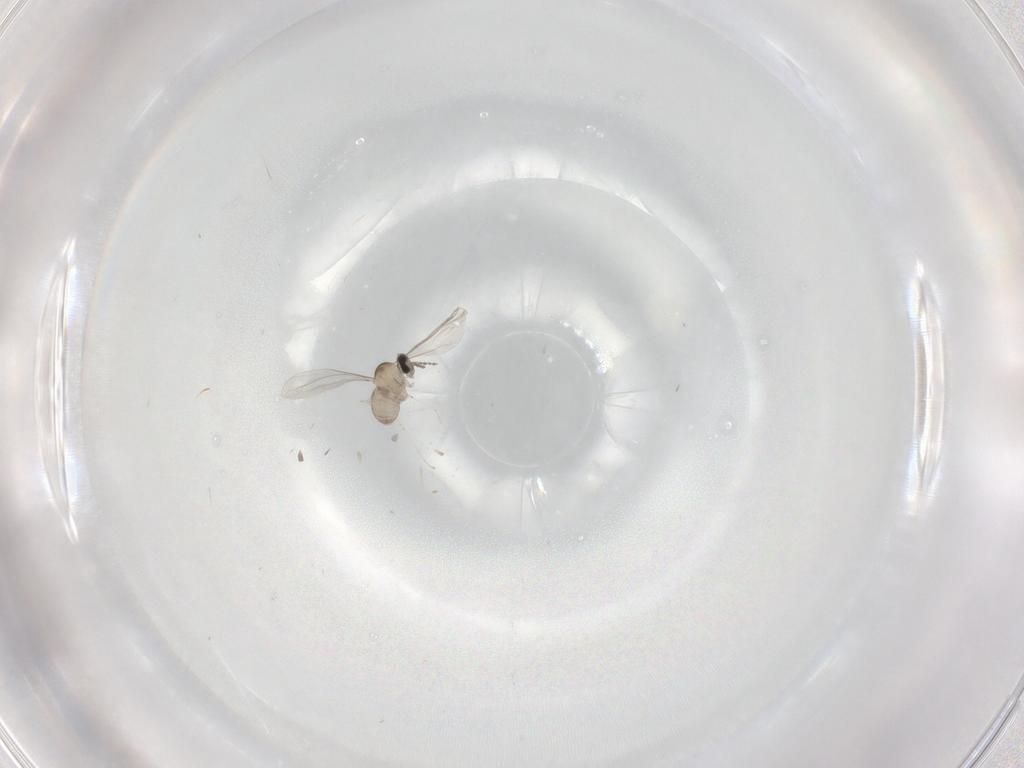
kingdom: Animalia
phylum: Arthropoda
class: Insecta
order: Diptera
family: Cecidomyiidae
